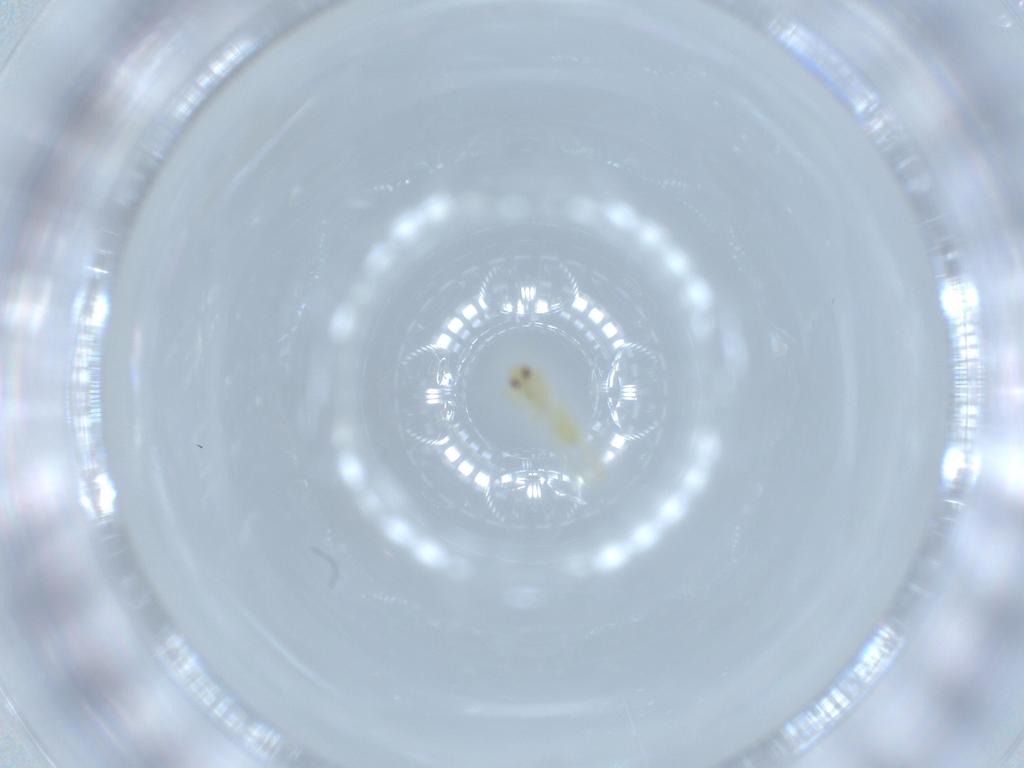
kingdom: Animalia
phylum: Arthropoda
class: Insecta
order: Hemiptera
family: Aleyrodidae
